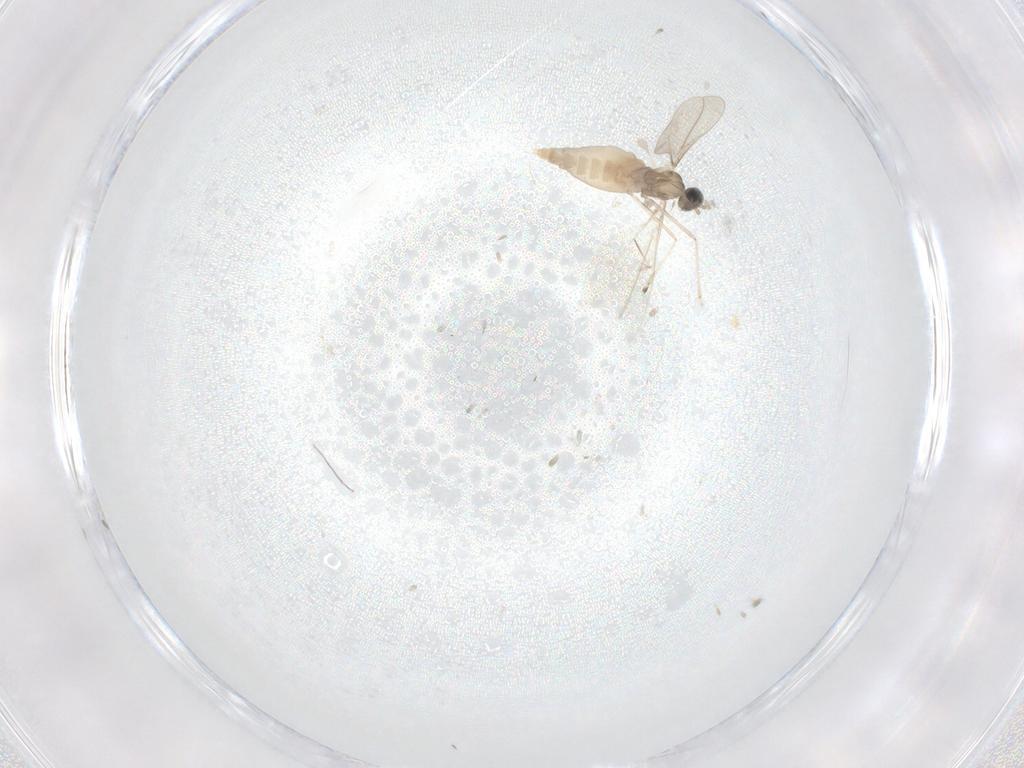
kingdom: Animalia
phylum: Arthropoda
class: Insecta
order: Diptera
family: Cecidomyiidae
